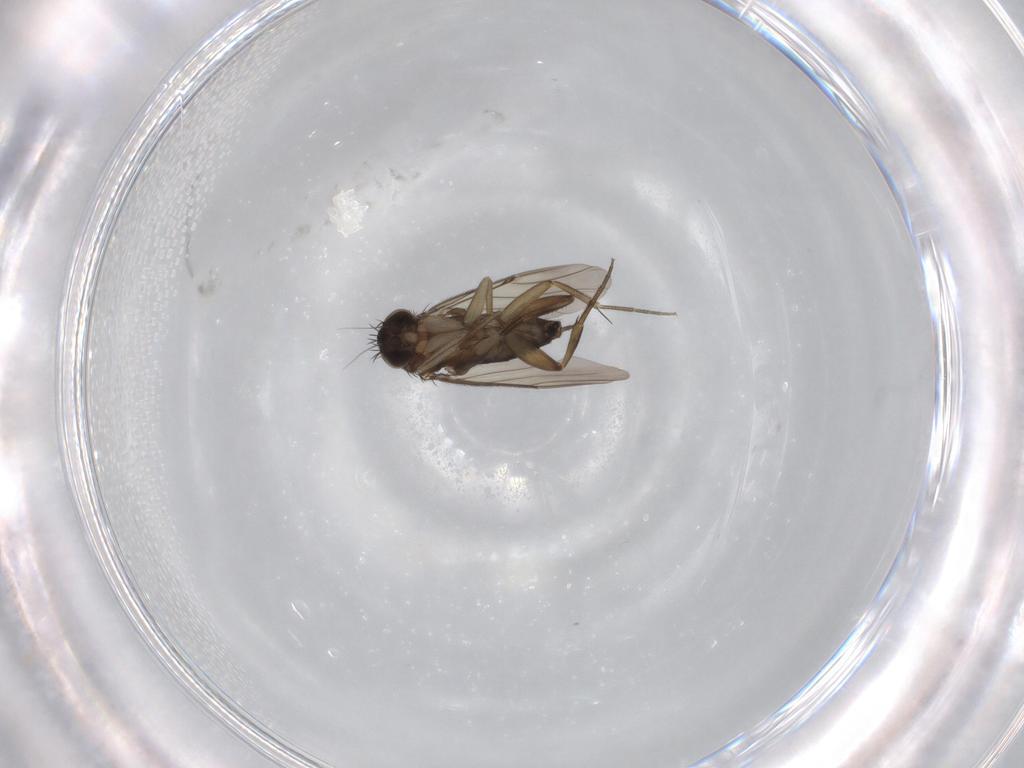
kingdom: Animalia
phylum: Arthropoda
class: Insecta
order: Diptera
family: Phoridae
